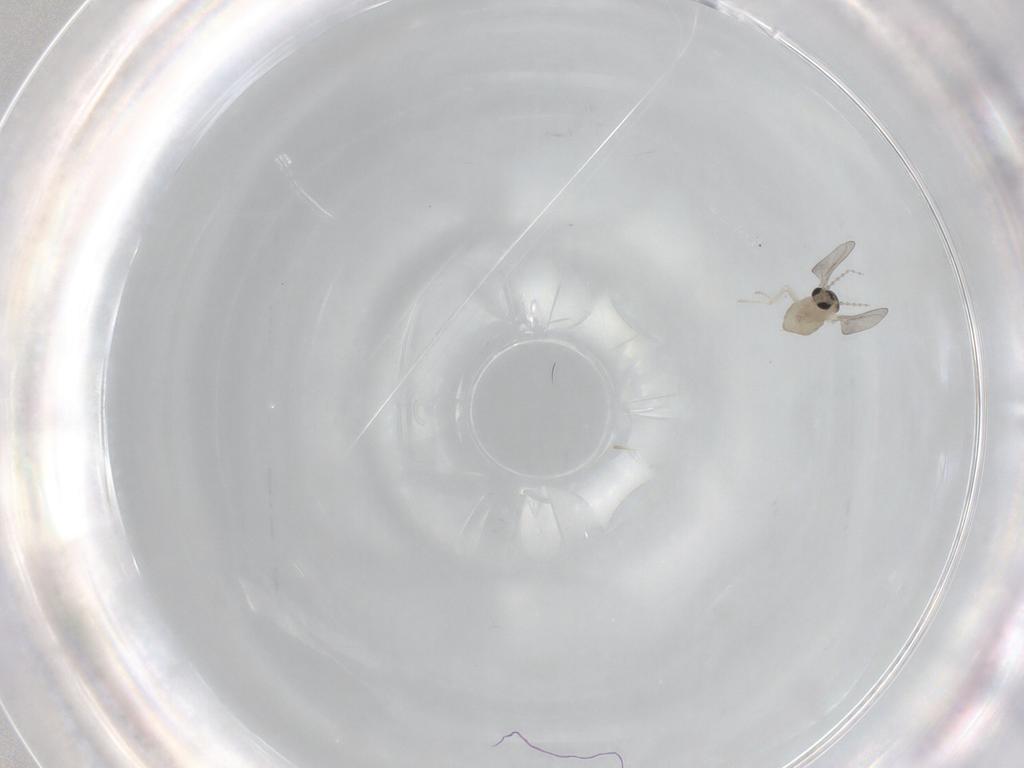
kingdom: Animalia
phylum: Arthropoda
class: Insecta
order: Diptera
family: Cecidomyiidae
